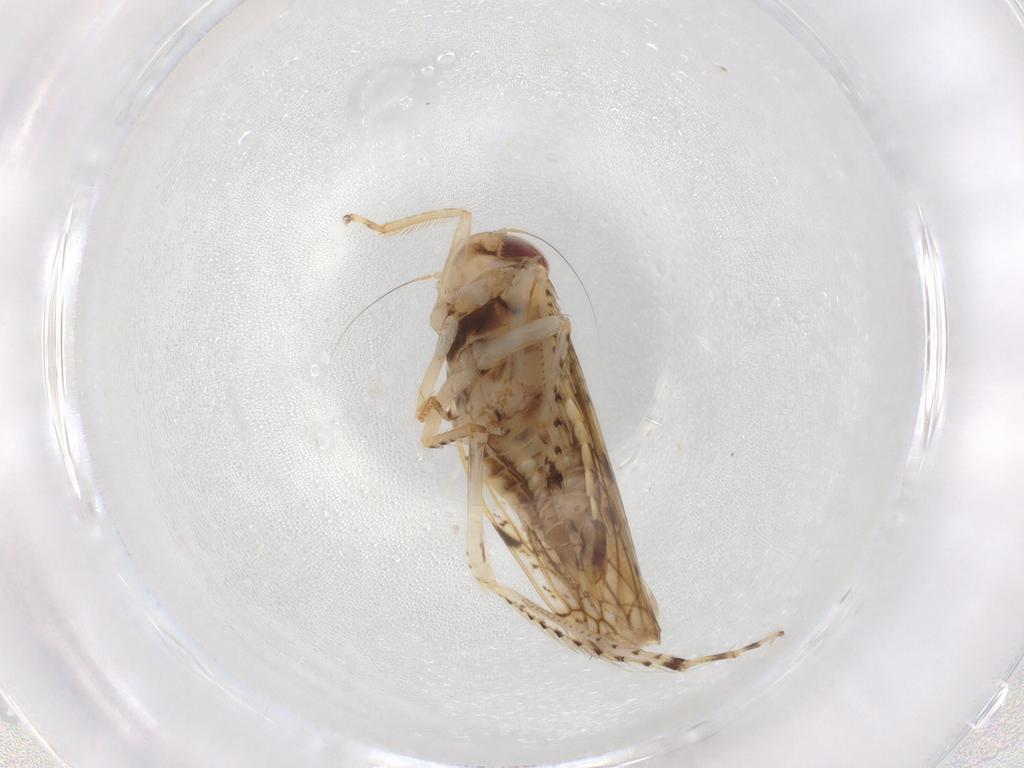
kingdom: Animalia
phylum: Arthropoda
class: Insecta
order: Hemiptera
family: Cicadellidae
